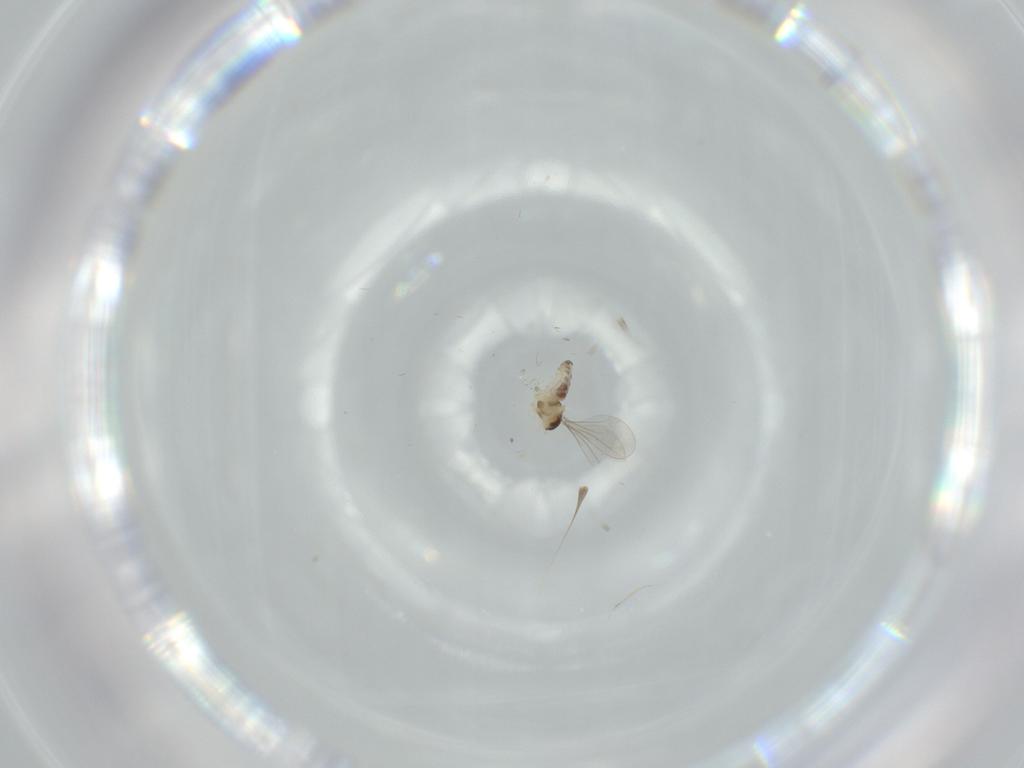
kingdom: Animalia
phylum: Arthropoda
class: Insecta
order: Diptera
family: Cecidomyiidae
